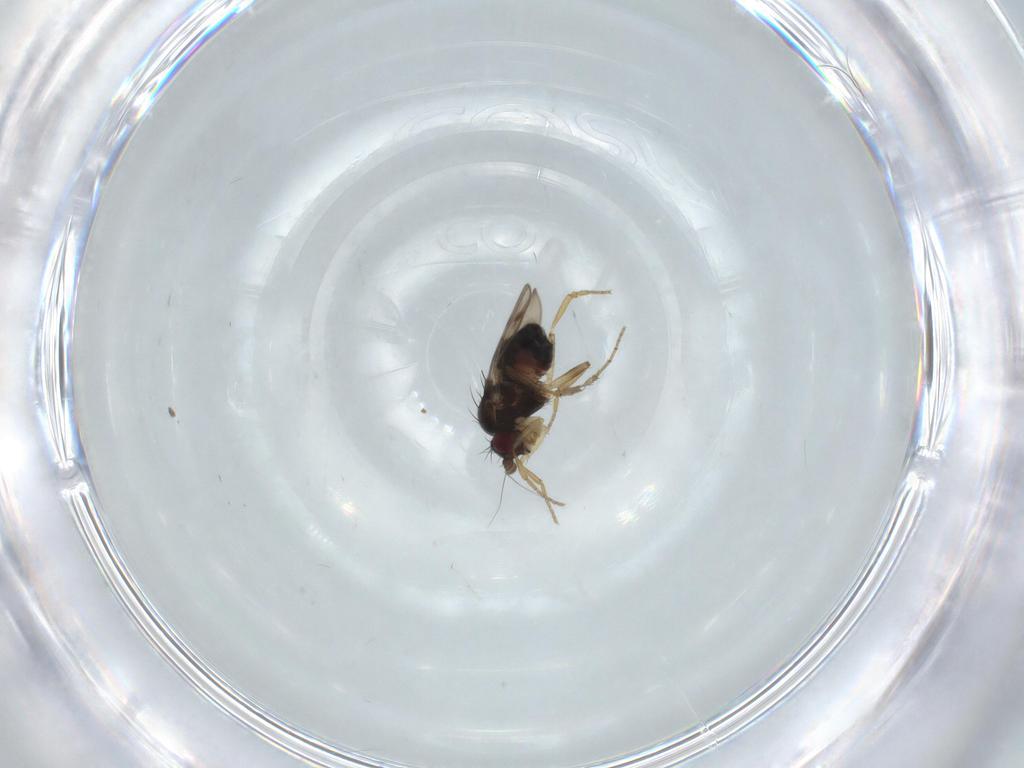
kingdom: Animalia
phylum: Arthropoda
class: Insecta
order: Diptera
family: Sphaeroceridae
